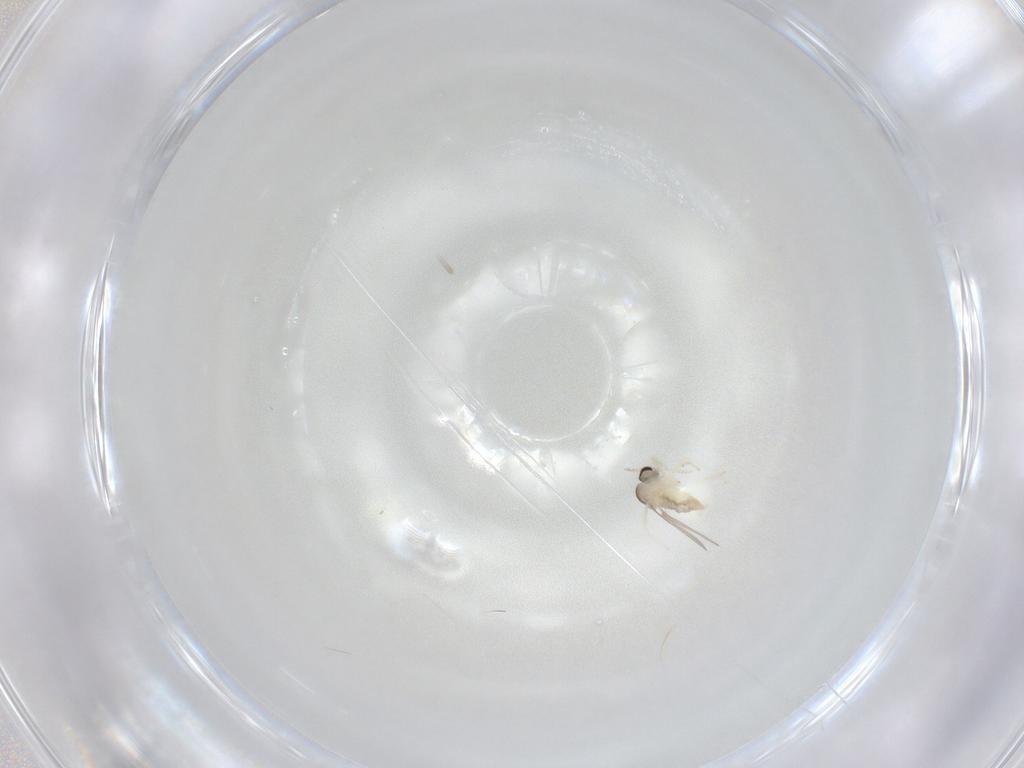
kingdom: Animalia
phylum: Arthropoda
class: Insecta
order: Diptera
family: Cecidomyiidae
